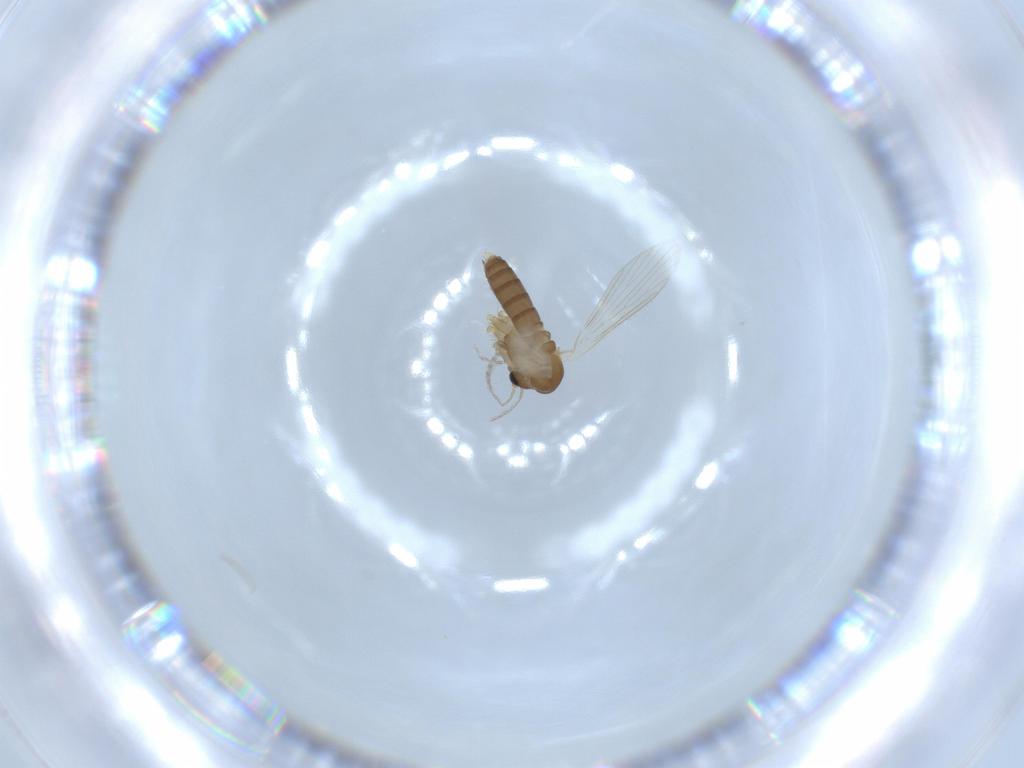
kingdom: Animalia
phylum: Arthropoda
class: Insecta
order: Diptera
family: Psychodidae
